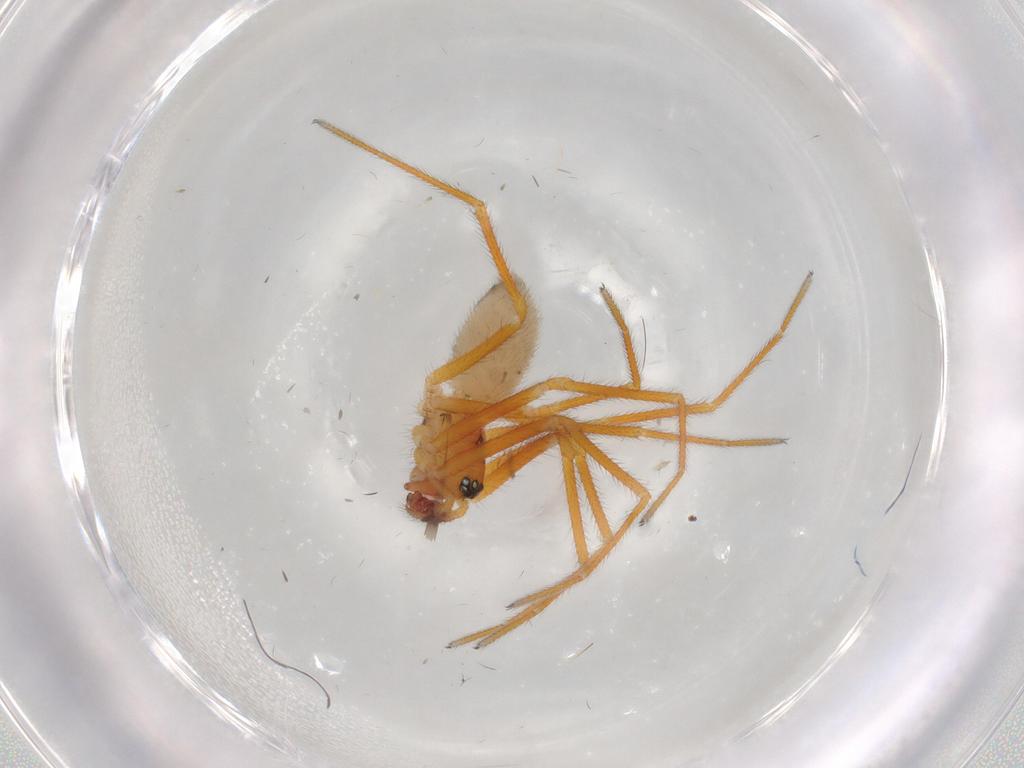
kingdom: Animalia
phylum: Arthropoda
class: Arachnida
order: Araneae
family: Linyphiidae
